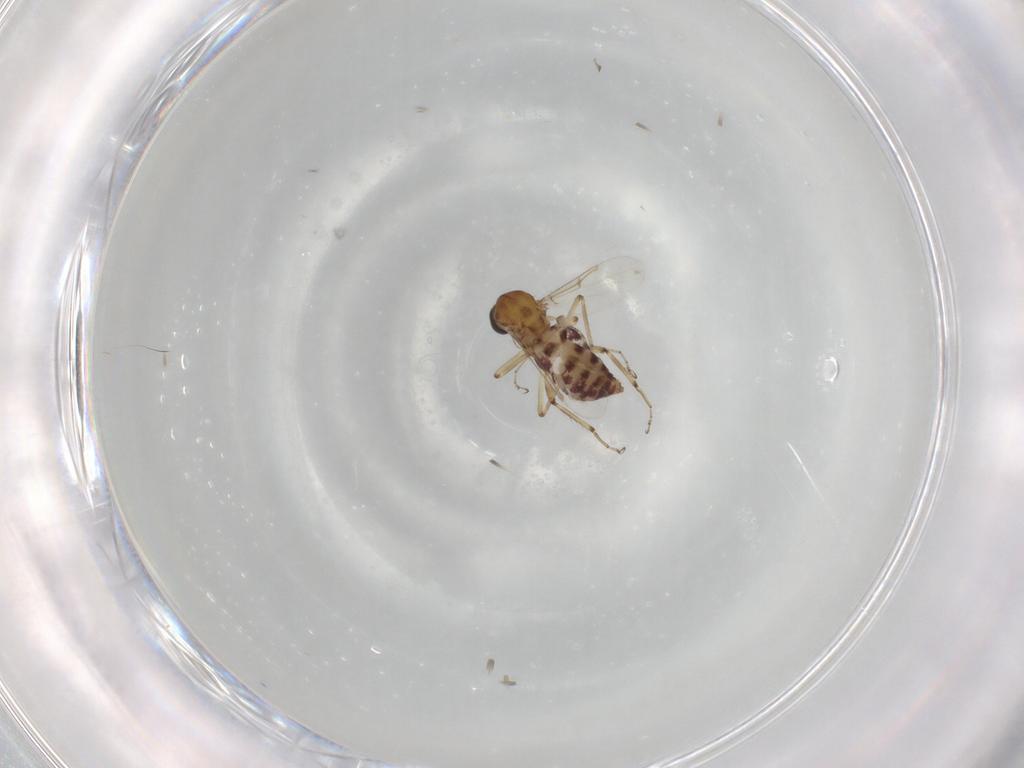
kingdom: Animalia
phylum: Arthropoda
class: Insecta
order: Diptera
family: Ceratopogonidae
